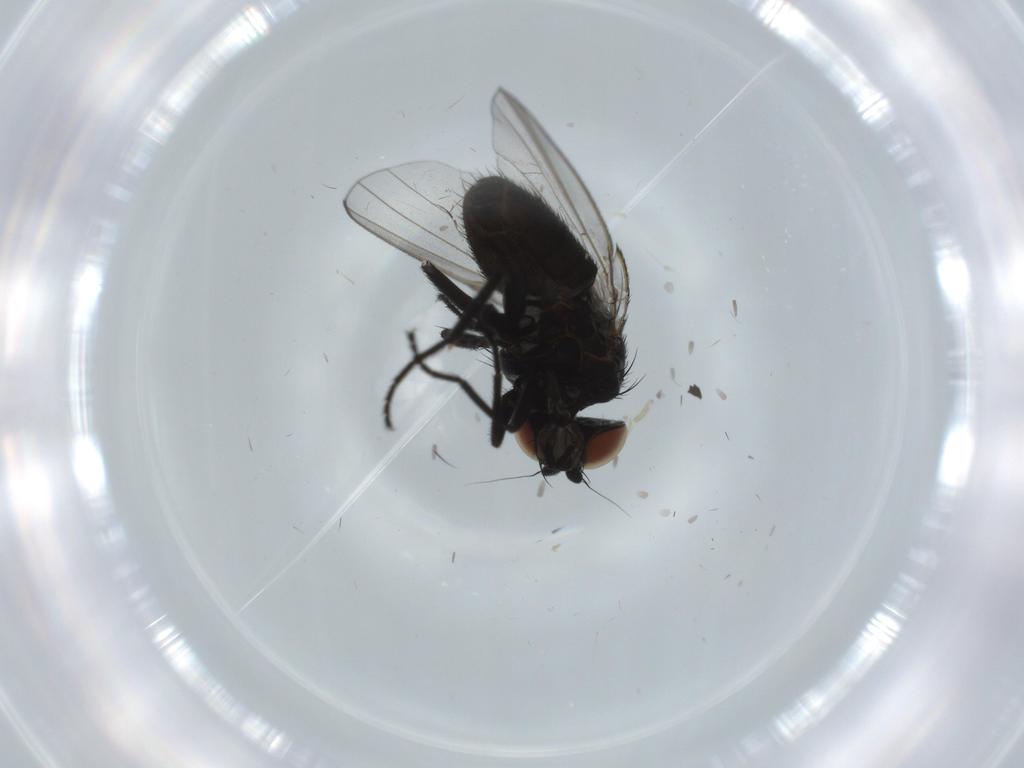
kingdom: Animalia
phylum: Arthropoda
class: Insecta
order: Diptera
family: Milichiidae
